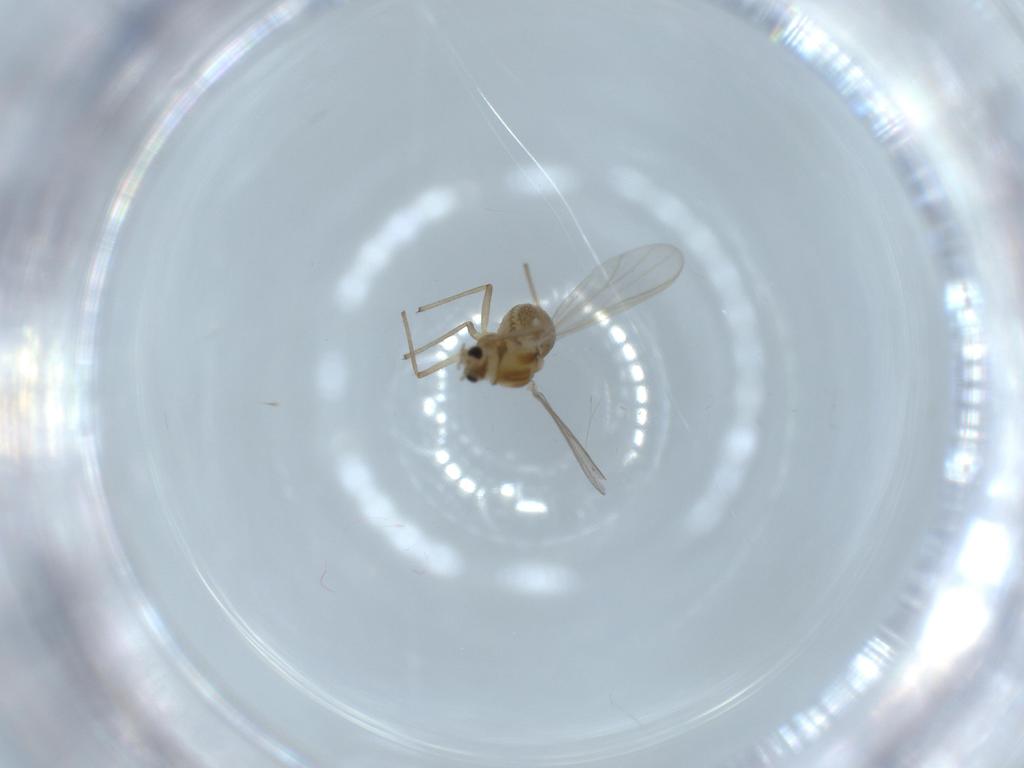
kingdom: Animalia
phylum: Arthropoda
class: Insecta
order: Diptera
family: Chironomidae
